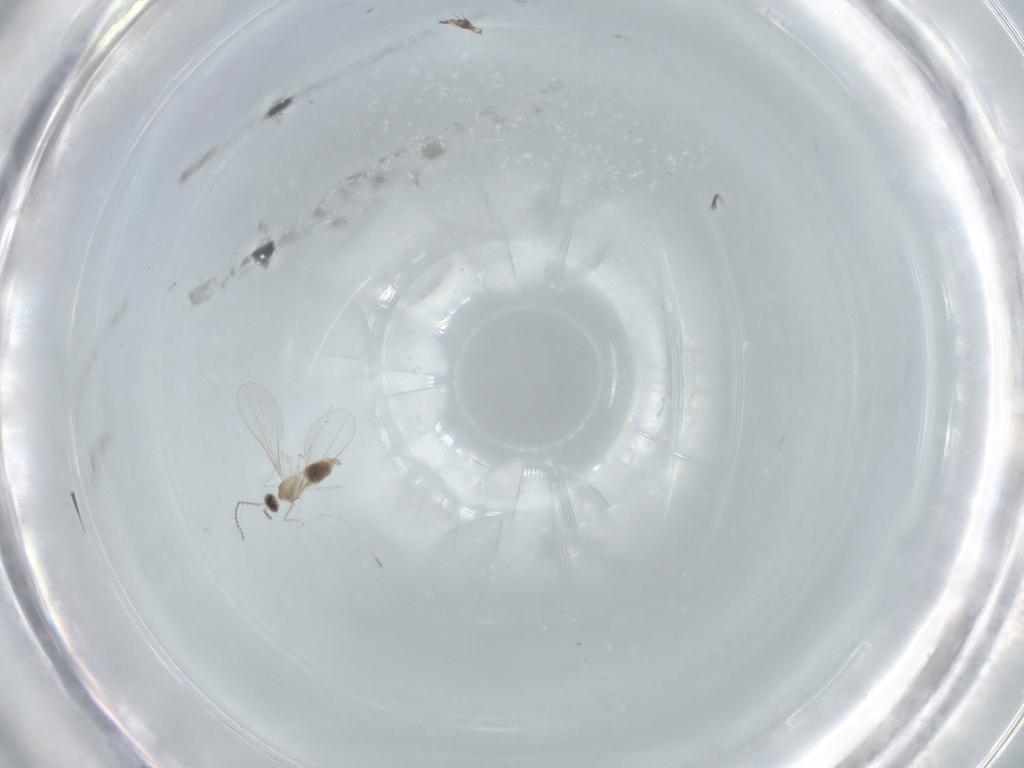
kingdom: Animalia
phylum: Arthropoda
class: Insecta
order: Diptera
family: Cecidomyiidae
